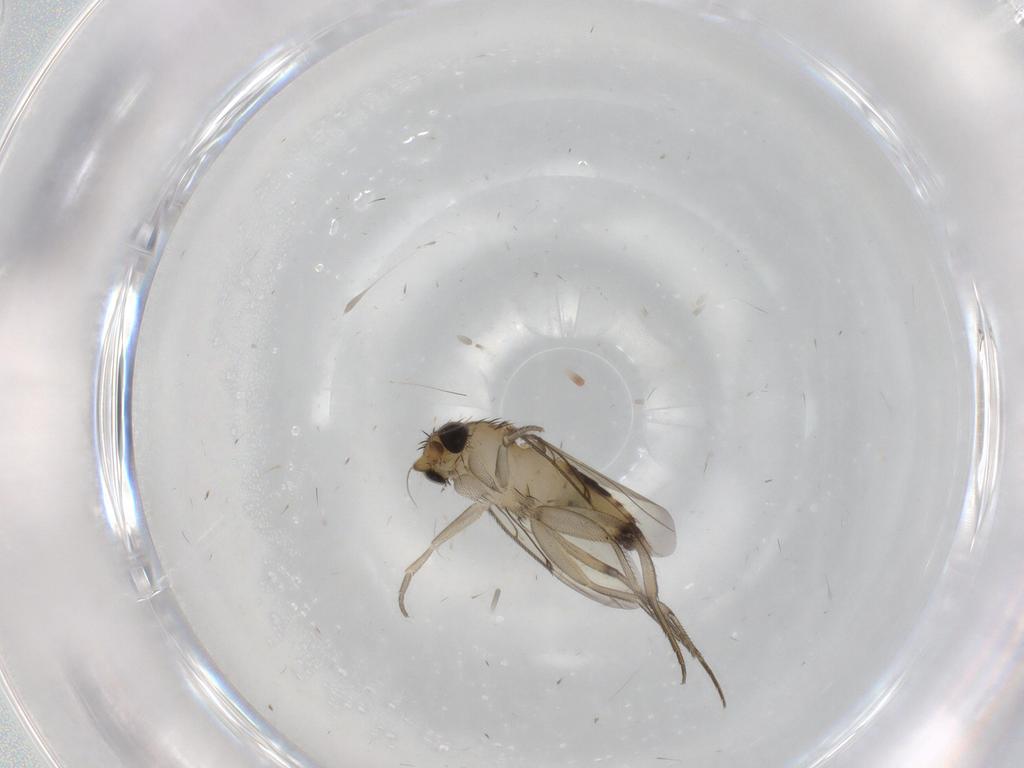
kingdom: Animalia
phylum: Arthropoda
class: Insecta
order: Diptera
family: Phoridae
